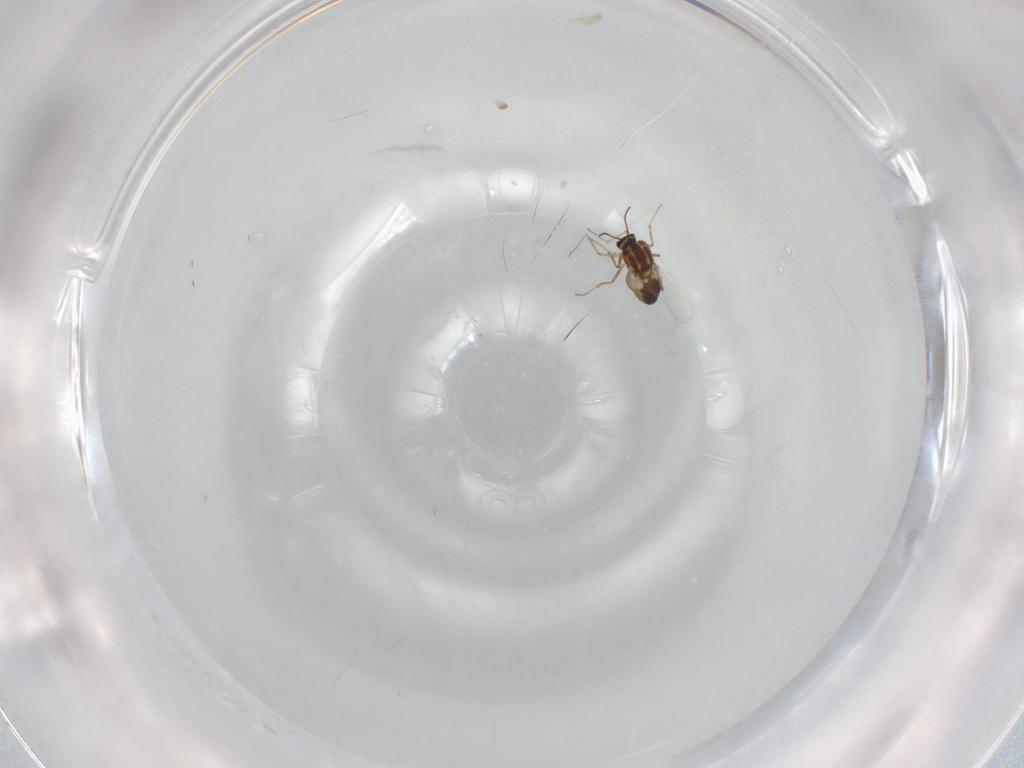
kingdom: Animalia
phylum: Arthropoda
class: Insecta
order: Diptera
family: Ceratopogonidae
